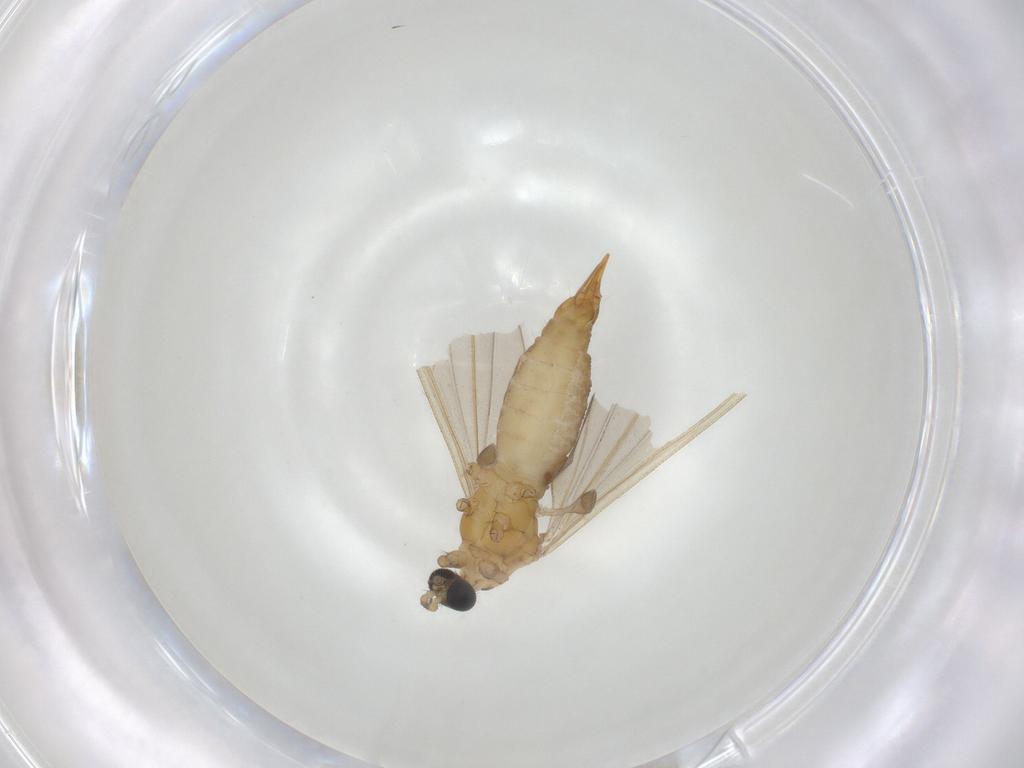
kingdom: Animalia
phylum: Arthropoda
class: Insecta
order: Diptera
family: Limoniidae
